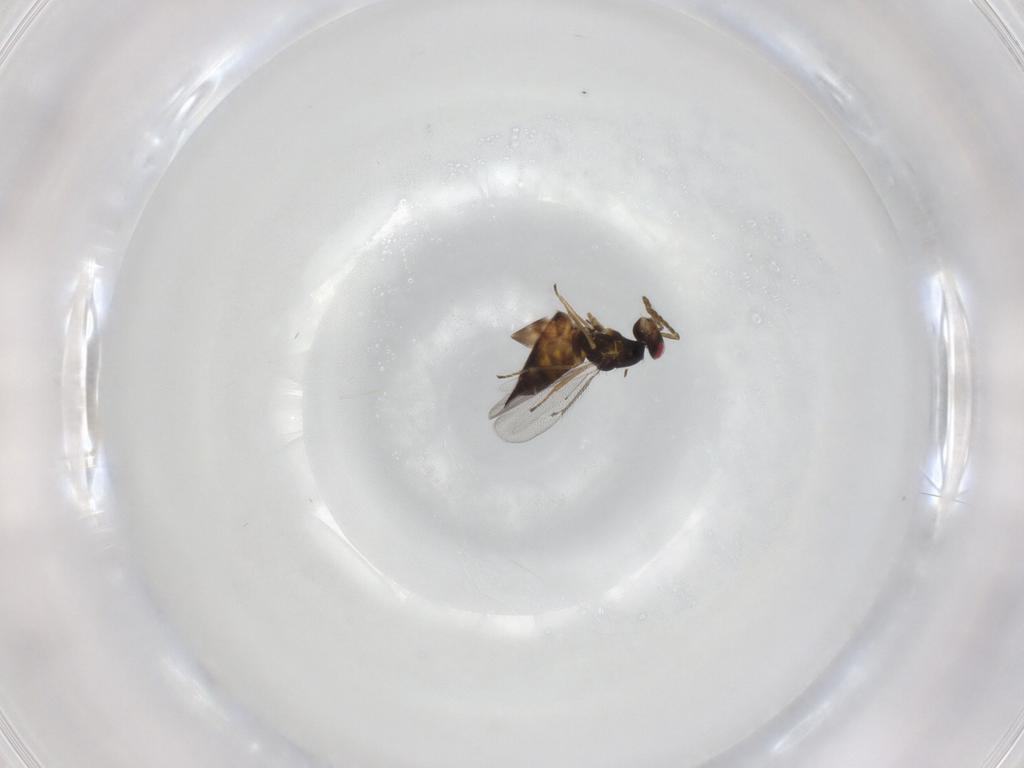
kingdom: Animalia
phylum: Arthropoda
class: Insecta
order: Hymenoptera
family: Eulophidae
